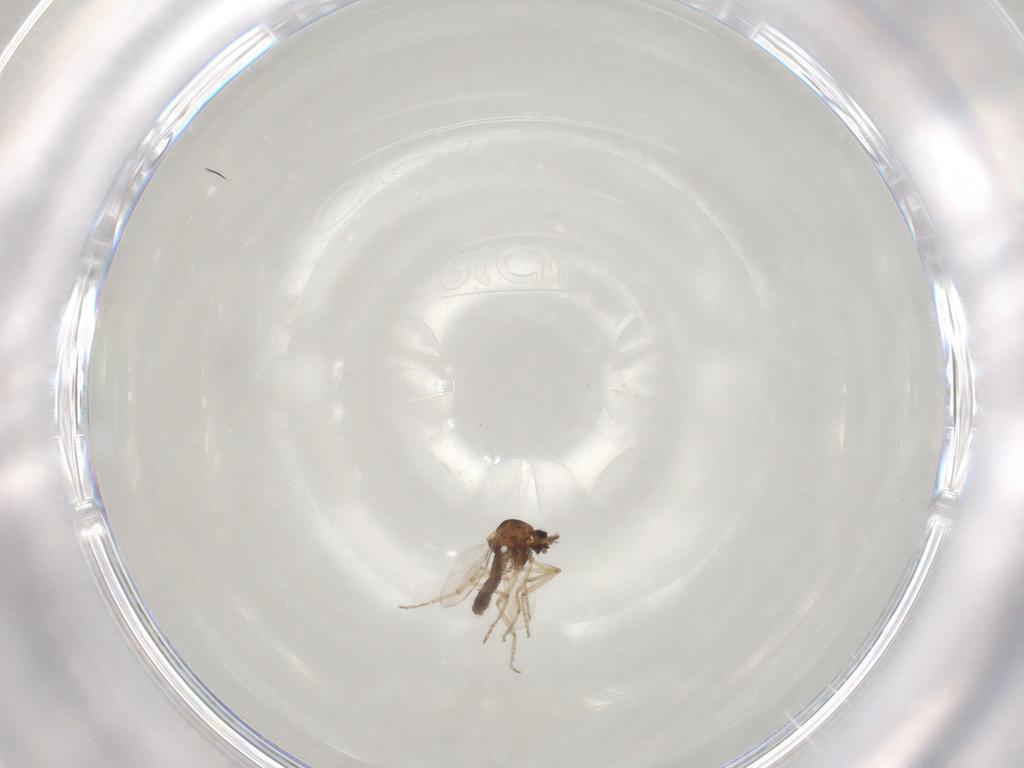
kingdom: Animalia
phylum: Arthropoda
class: Insecta
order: Diptera
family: Ceratopogonidae
